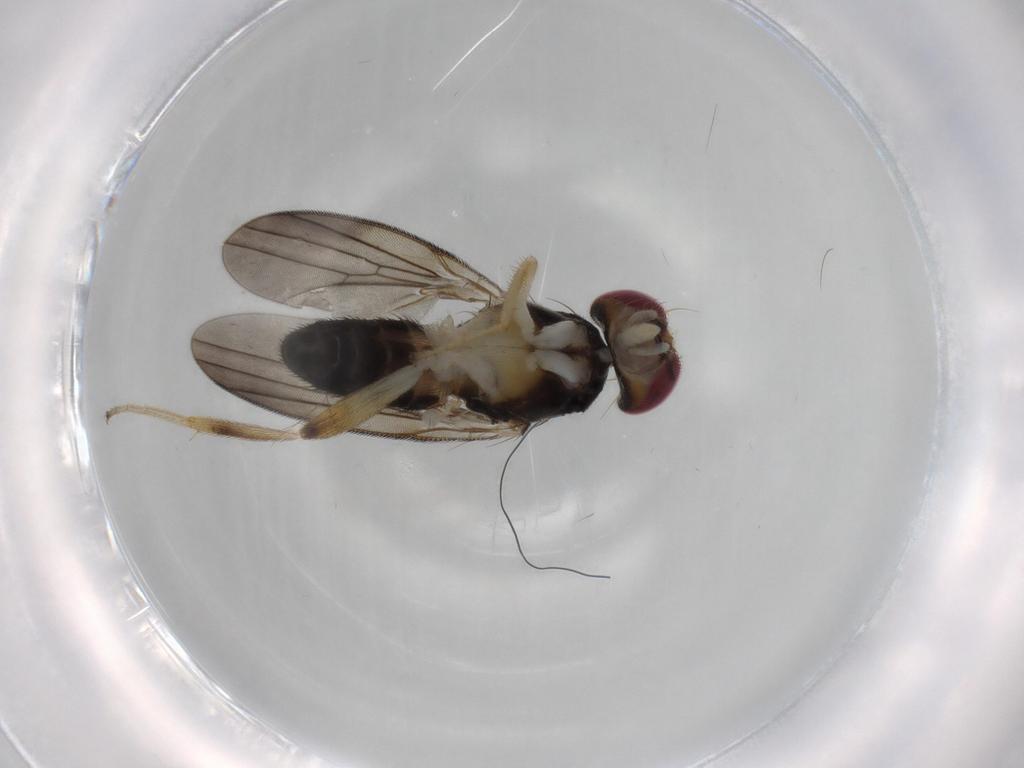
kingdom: Animalia
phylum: Arthropoda
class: Insecta
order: Diptera
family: Clusiidae
